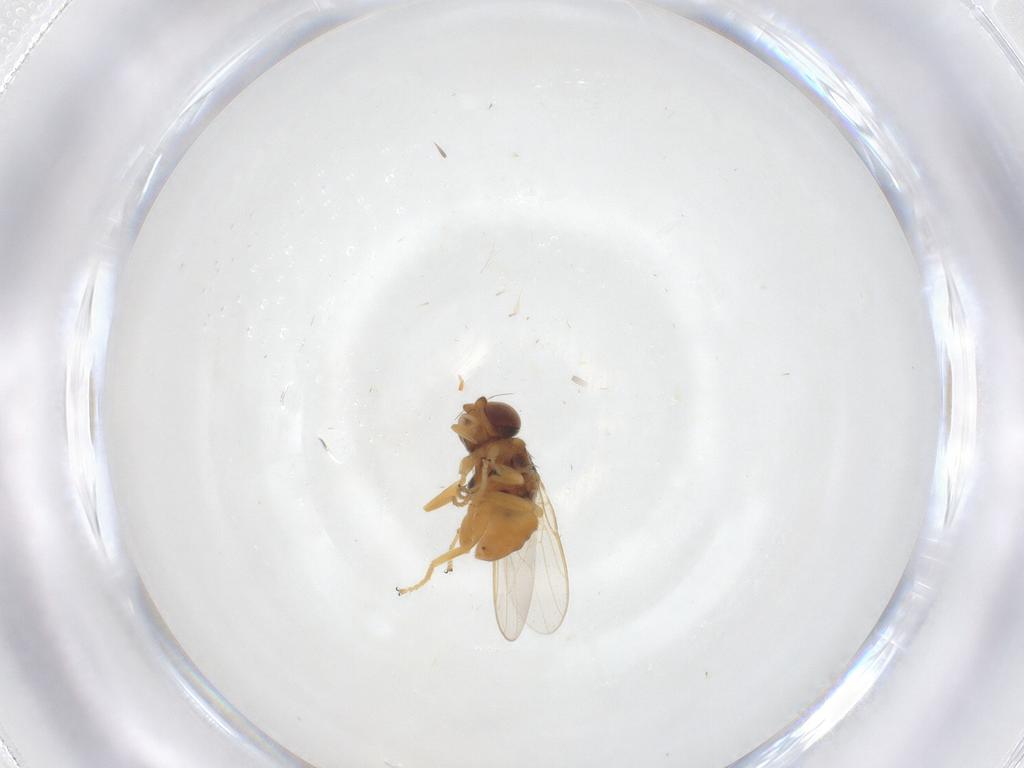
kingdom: Animalia
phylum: Arthropoda
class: Insecta
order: Diptera
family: Chloropidae
